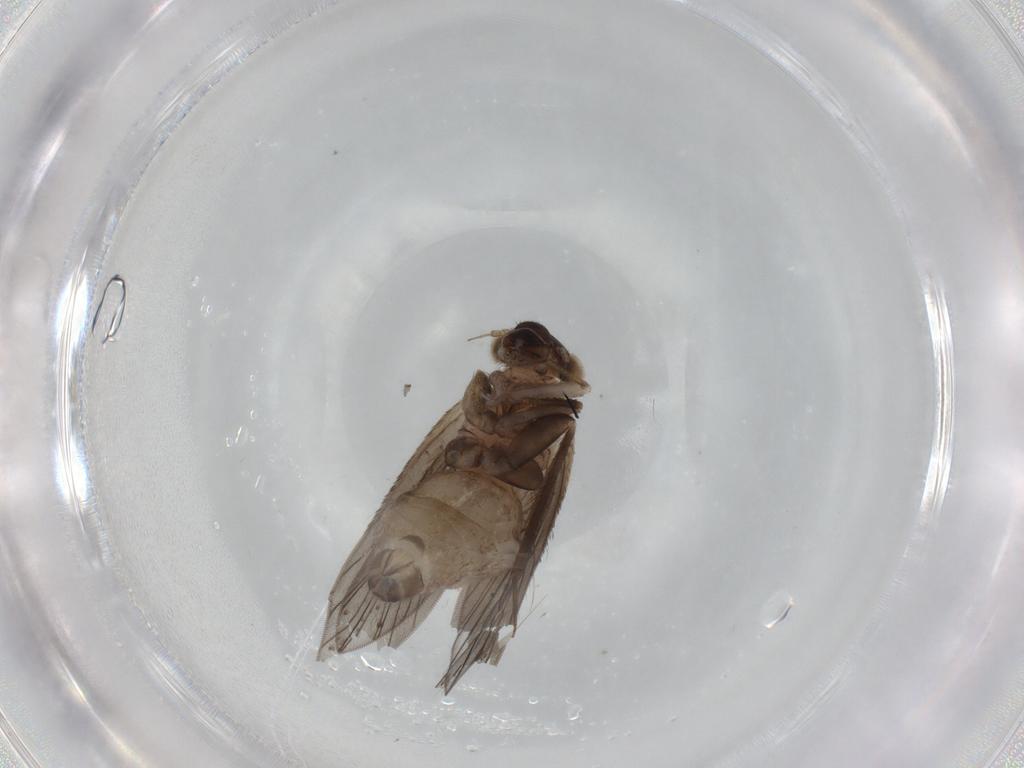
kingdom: Animalia
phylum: Arthropoda
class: Insecta
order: Psocodea
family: Lepidopsocidae
